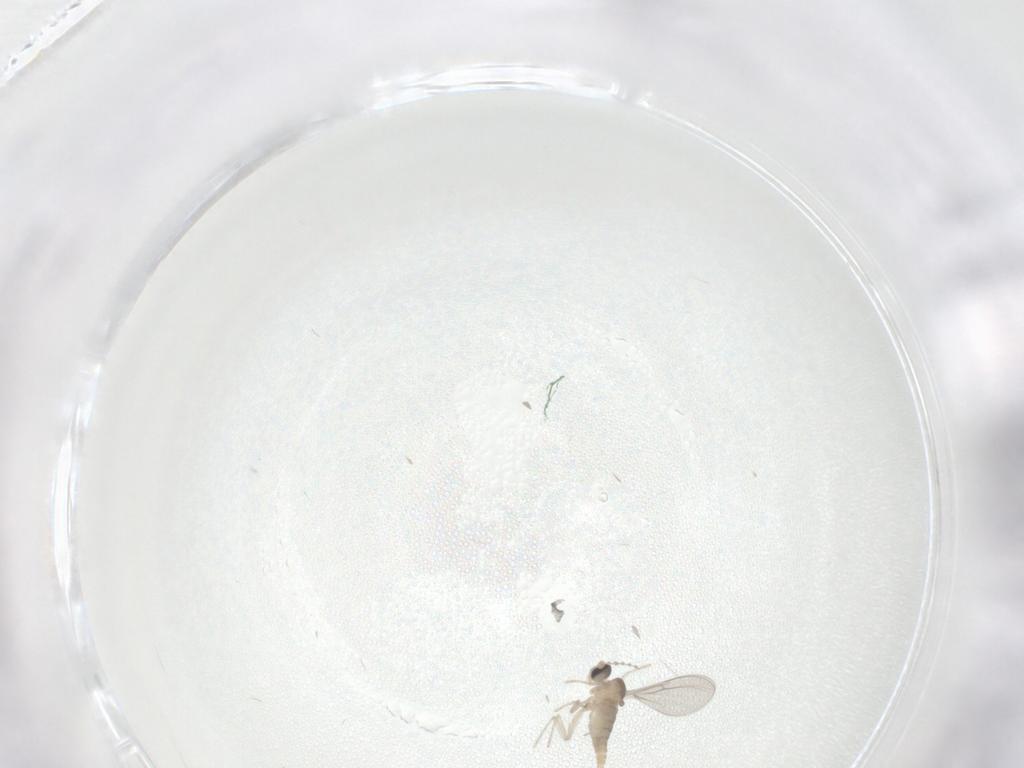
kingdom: Animalia
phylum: Arthropoda
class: Insecta
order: Diptera
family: Cecidomyiidae
